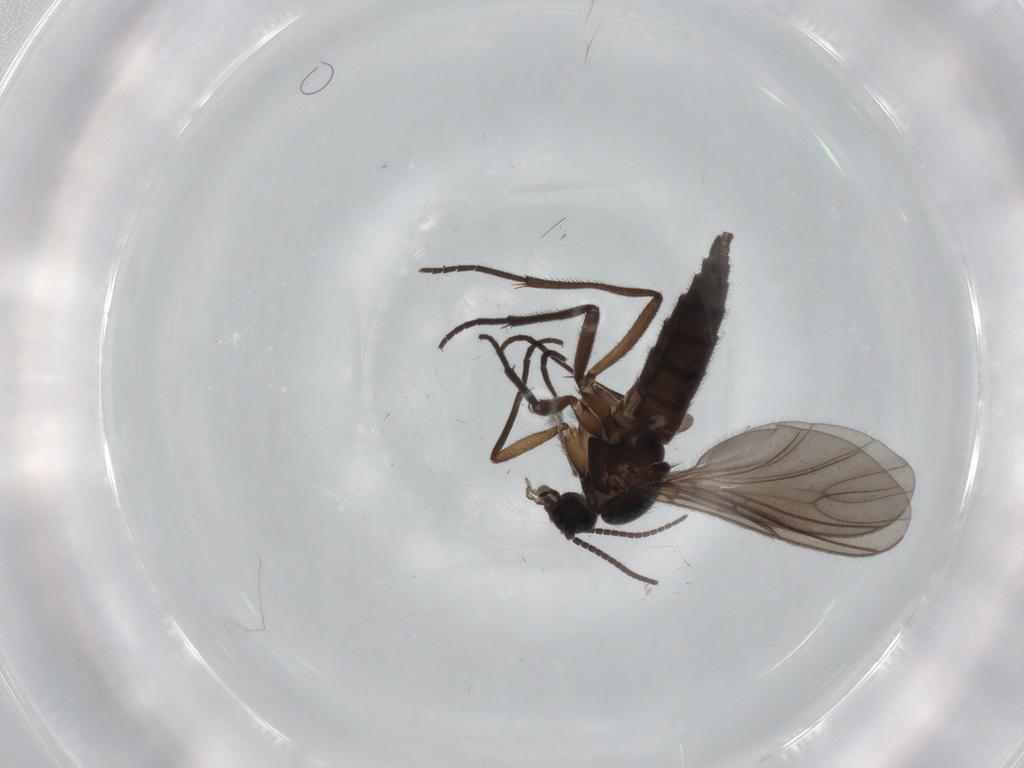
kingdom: Animalia
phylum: Arthropoda
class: Insecta
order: Diptera
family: Sciaridae
